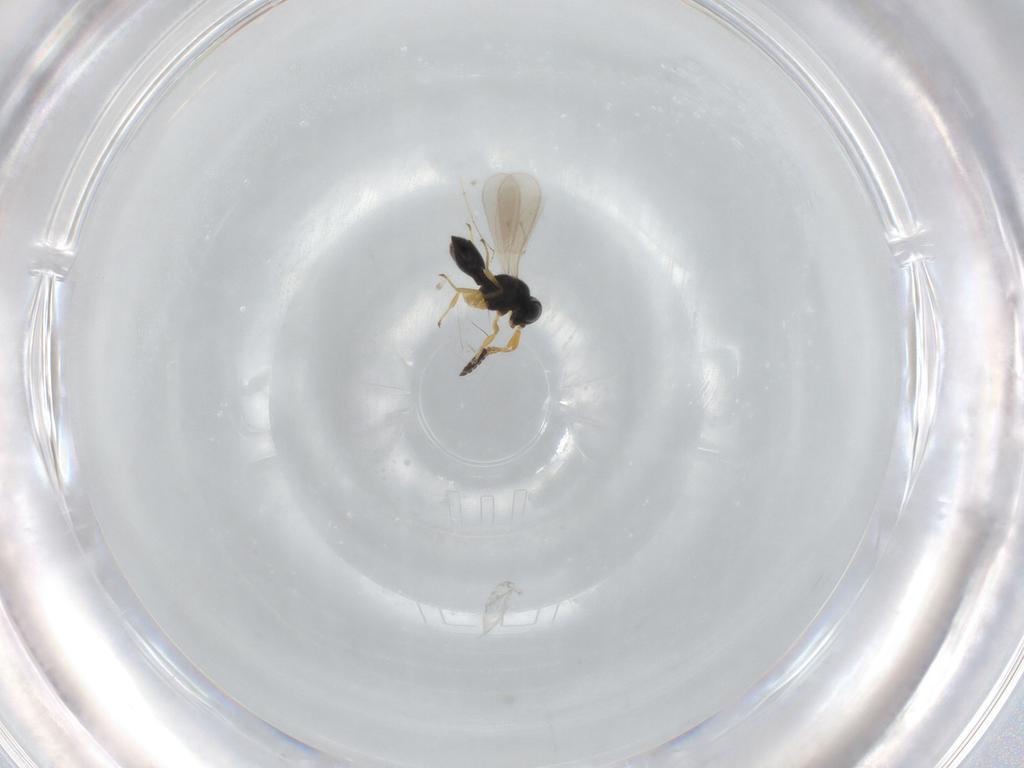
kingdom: Animalia
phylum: Arthropoda
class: Insecta
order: Hymenoptera
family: Scelionidae
